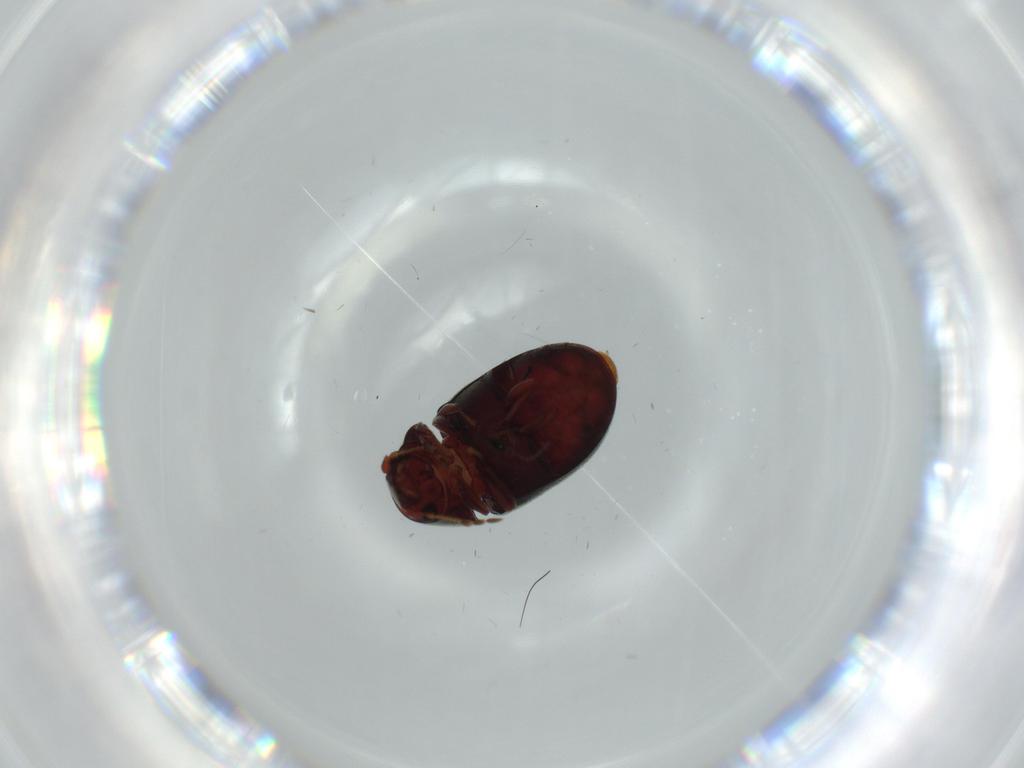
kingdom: Animalia
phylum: Arthropoda
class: Insecta
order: Coleoptera
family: Ptinidae
